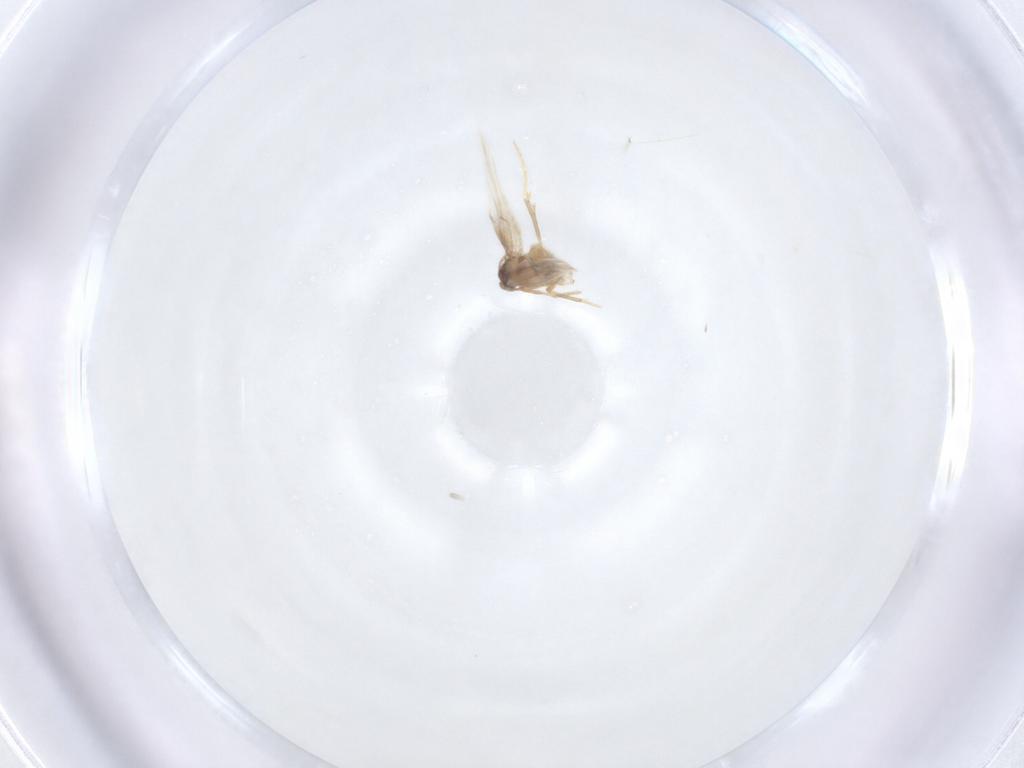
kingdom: Animalia
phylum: Arthropoda
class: Insecta
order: Lepidoptera
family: Nepticulidae
